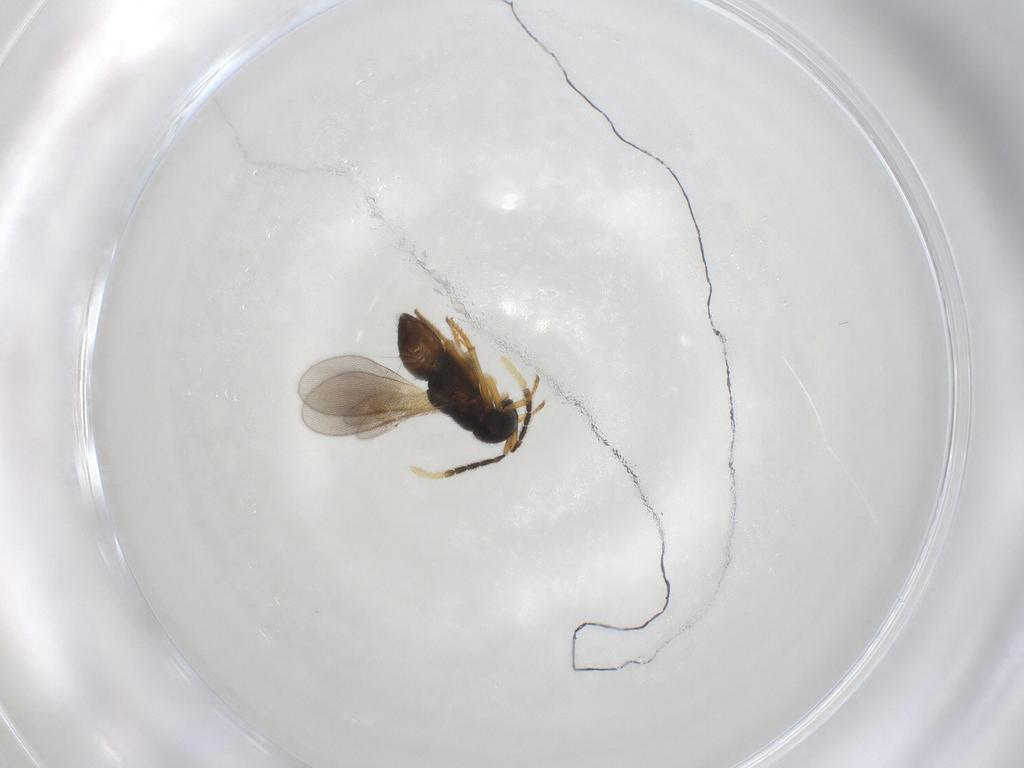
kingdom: Animalia
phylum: Arthropoda
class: Insecta
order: Hymenoptera
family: Encyrtidae
